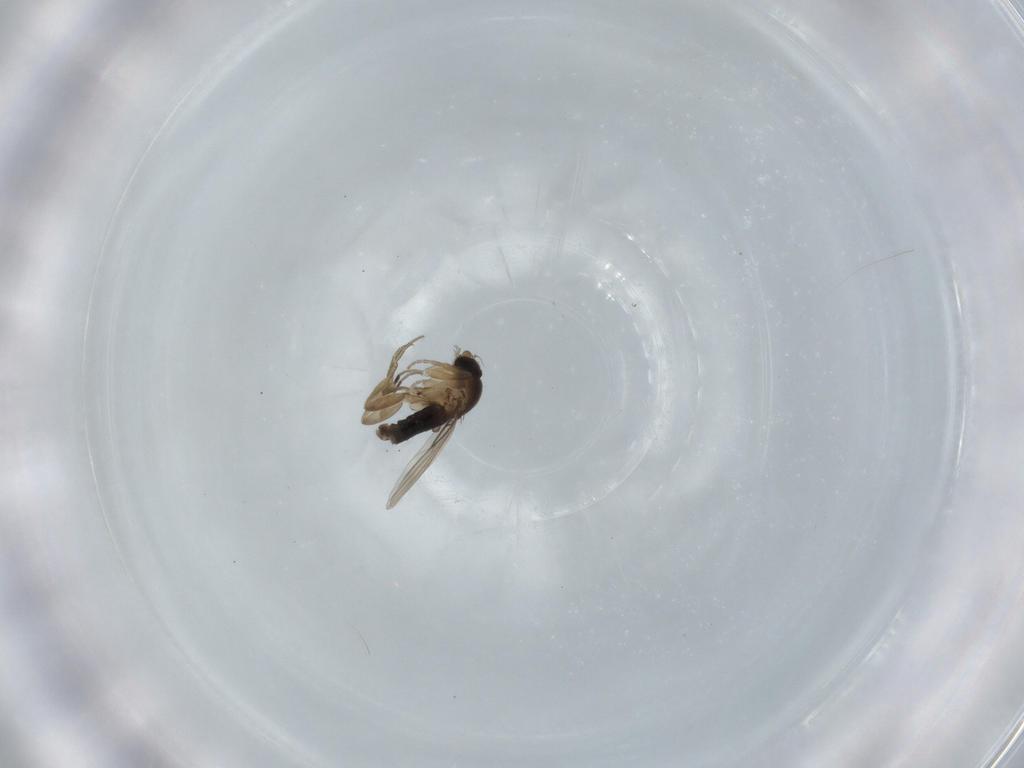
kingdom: Animalia
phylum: Arthropoda
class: Insecta
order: Diptera
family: Phoridae
